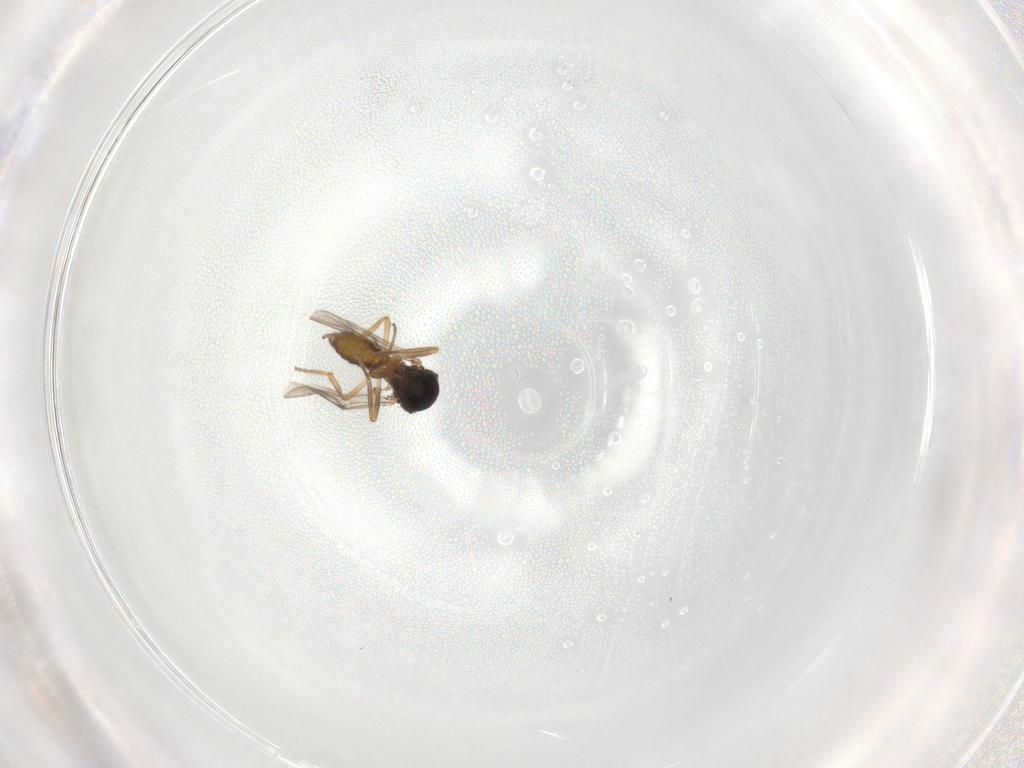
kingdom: Animalia
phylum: Arthropoda
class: Insecta
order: Diptera
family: Ceratopogonidae
